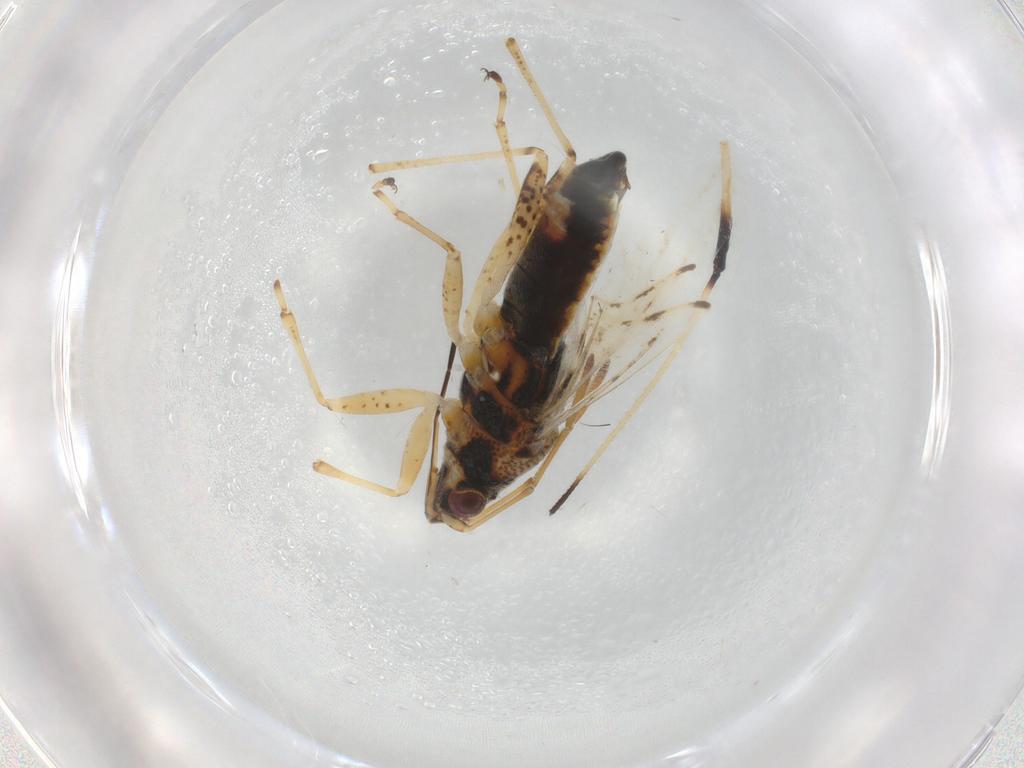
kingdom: Animalia
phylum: Arthropoda
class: Insecta
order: Hemiptera
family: Aphididae
